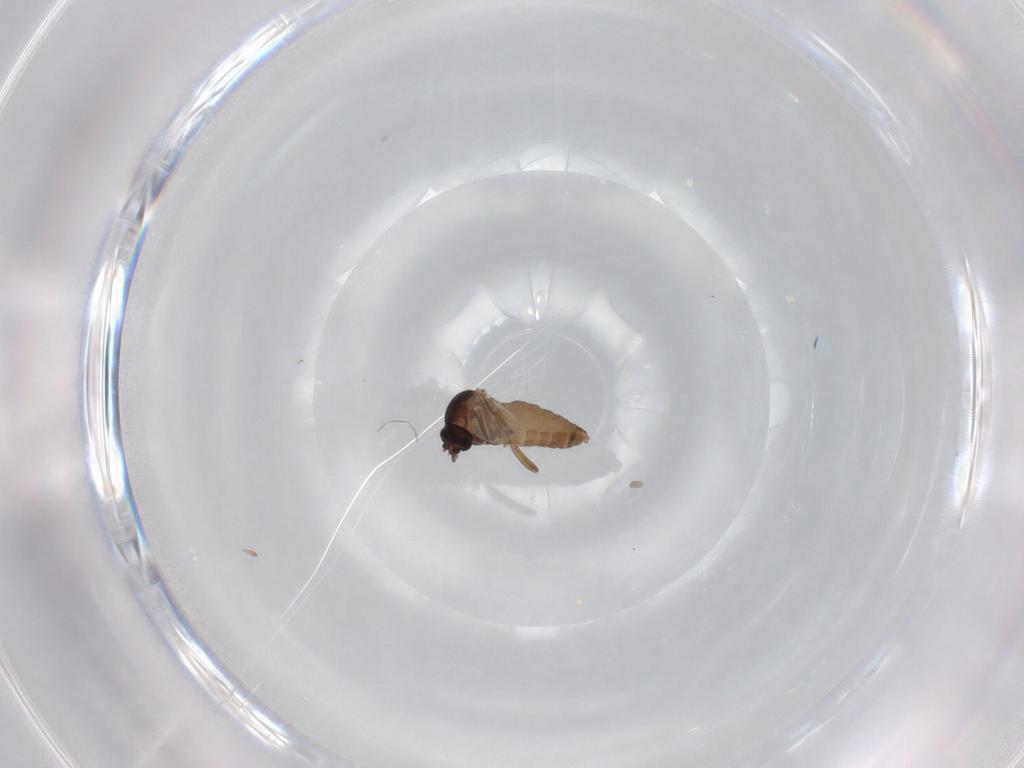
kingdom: Animalia
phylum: Arthropoda
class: Insecta
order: Diptera
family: Ceratopogonidae
